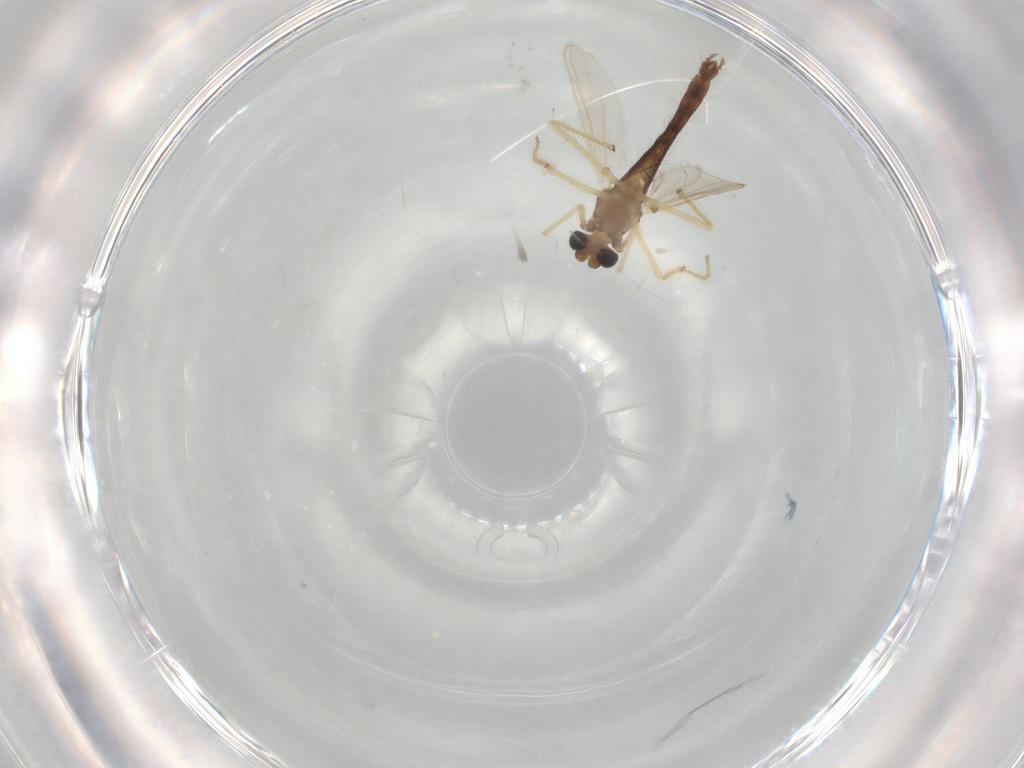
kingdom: Animalia
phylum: Arthropoda
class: Insecta
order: Diptera
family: Chironomidae
